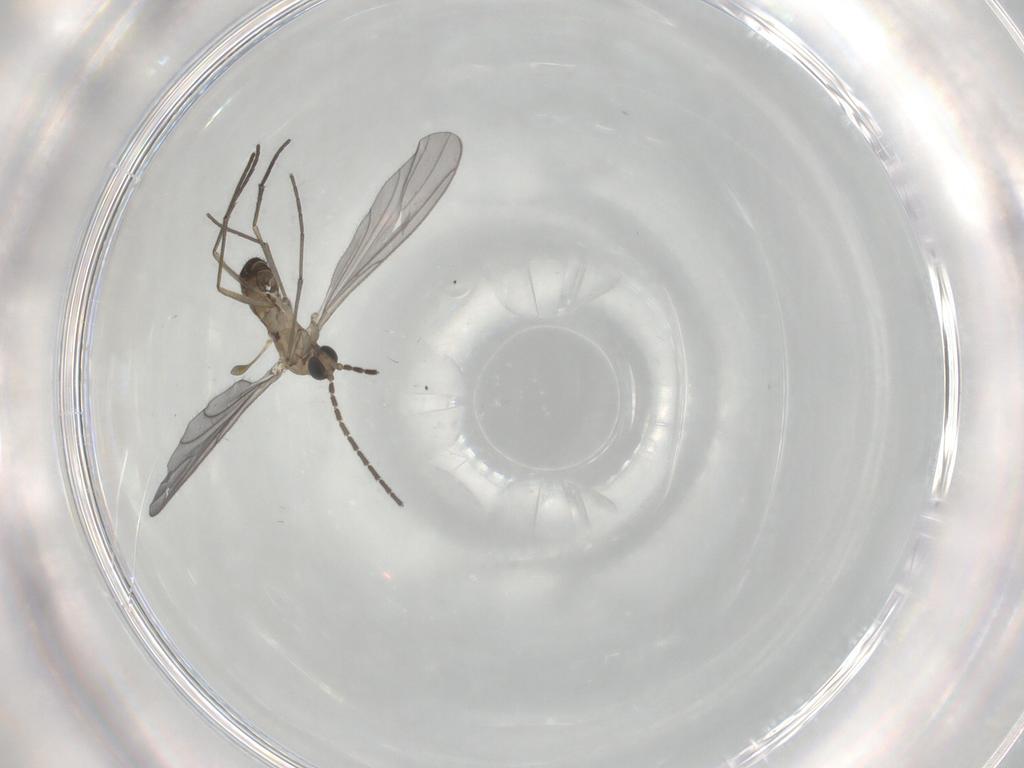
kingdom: Animalia
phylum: Arthropoda
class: Insecta
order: Diptera
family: Sciaridae
